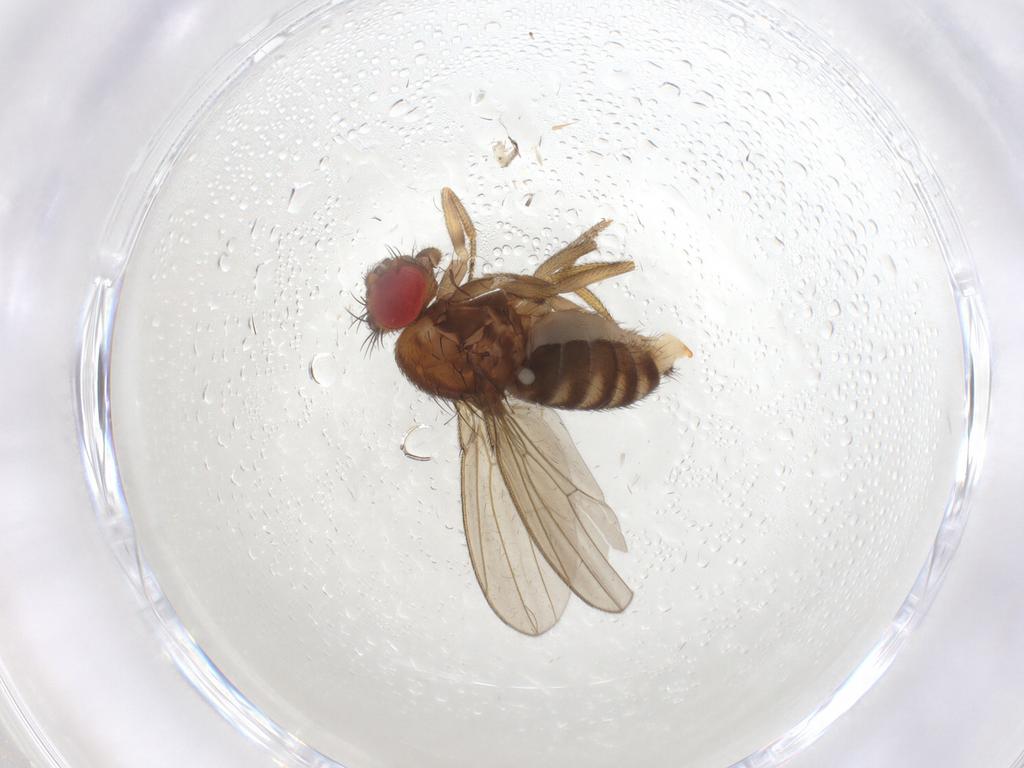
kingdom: Animalia
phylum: Arthropoda
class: Insecta
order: Diptera
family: Drosophilidae
